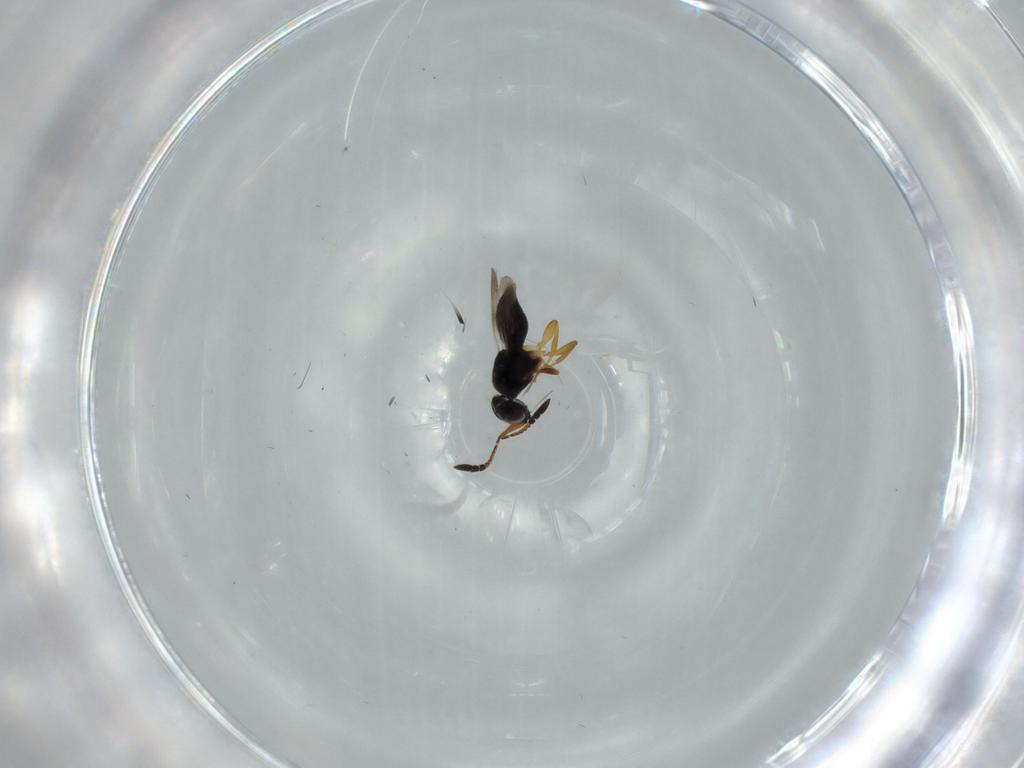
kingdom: Animalia
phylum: Arthropoda
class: Insecta
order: Hymenoptera
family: Ceraphronidae
